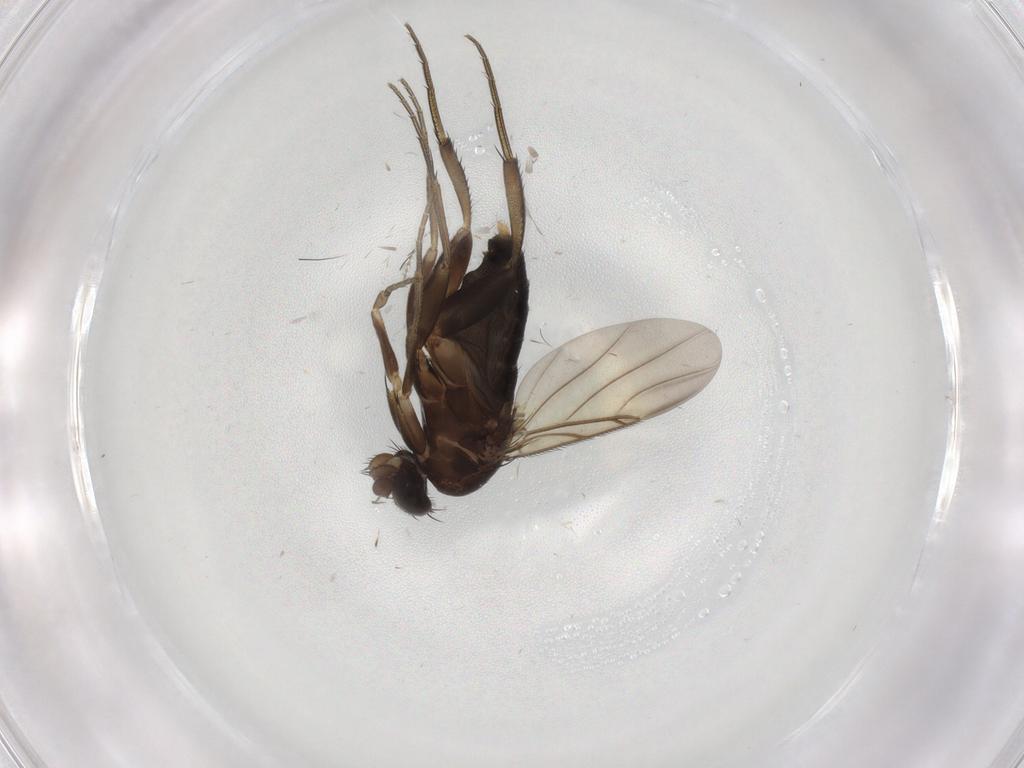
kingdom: Animalia
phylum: Arthropoda
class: Insecta
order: Diptera
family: Phoridae
